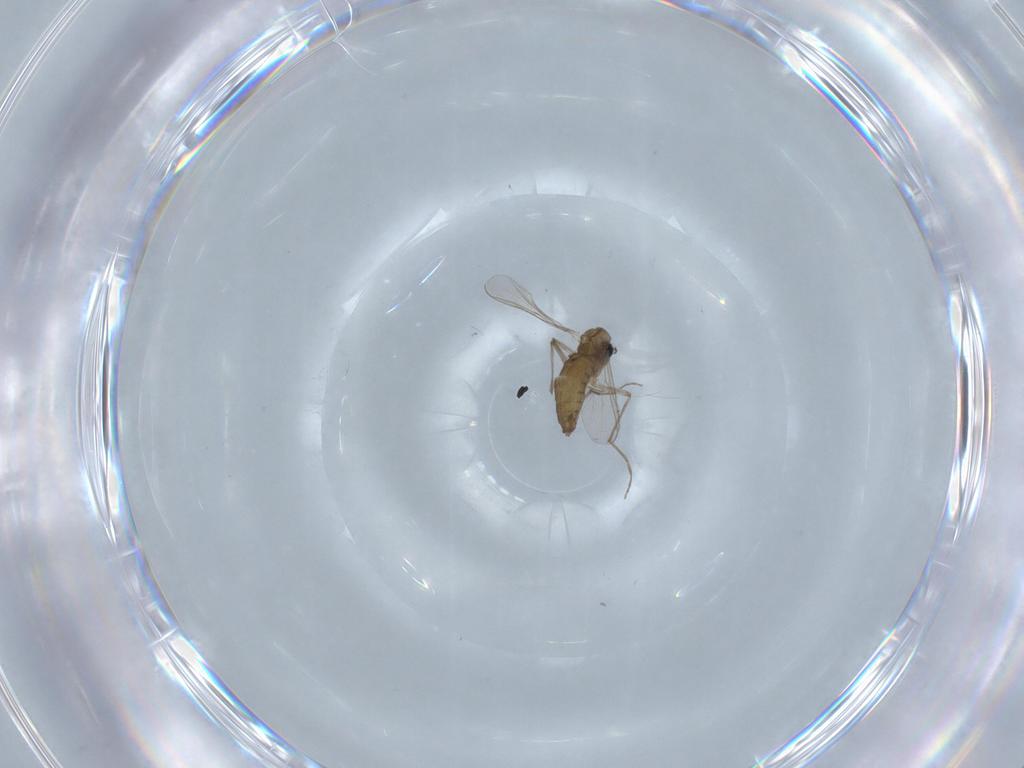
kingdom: Animalia
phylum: Arthropoda
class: Insecta
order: Diptera
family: Chironomidae
